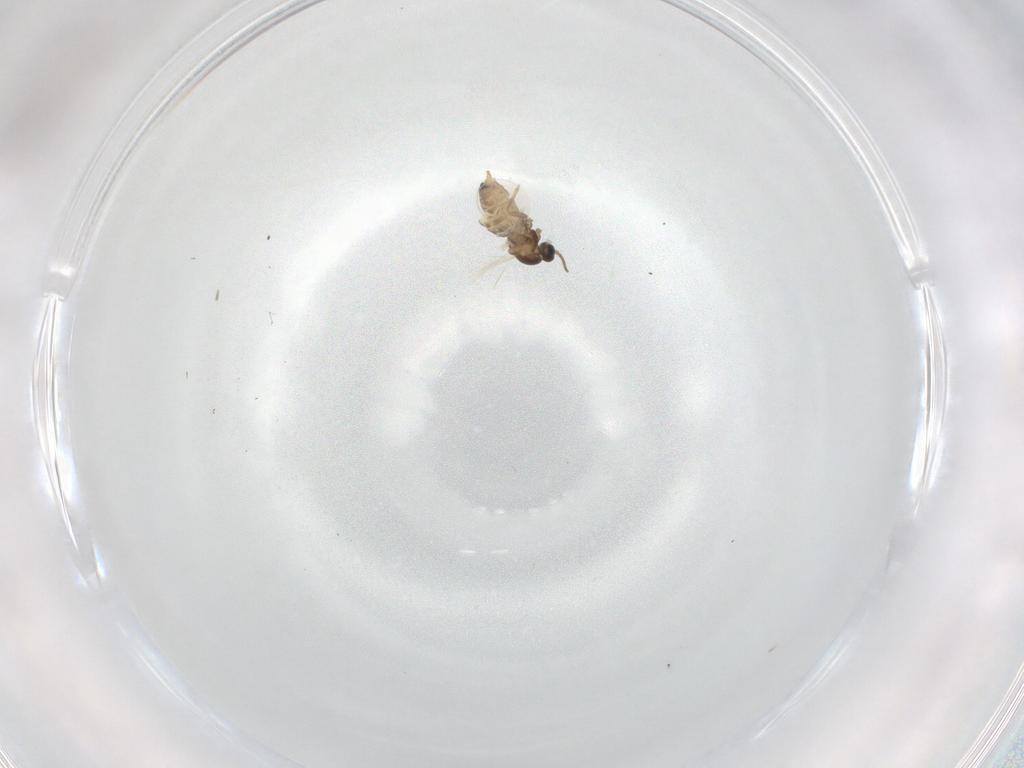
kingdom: Animalia
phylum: Arthropoda
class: Insecta
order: Diptera
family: Cecidomyiidae
